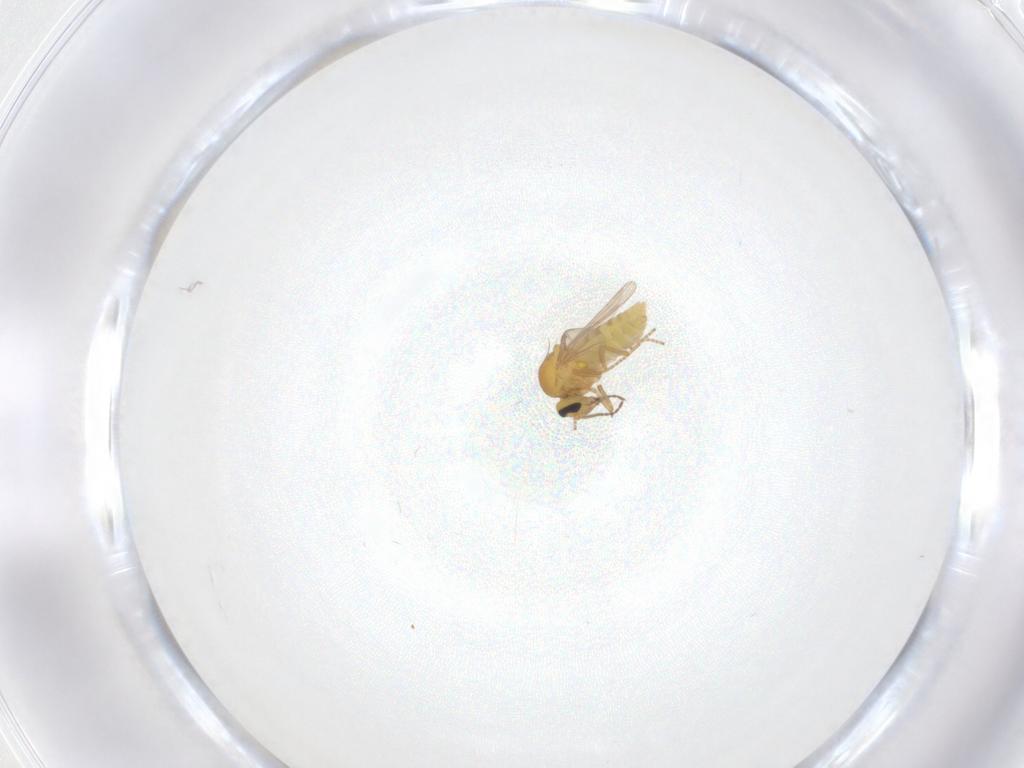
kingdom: Animalia
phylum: Arthropoda
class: Insecta
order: Diptera
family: Ceratopogonidae
